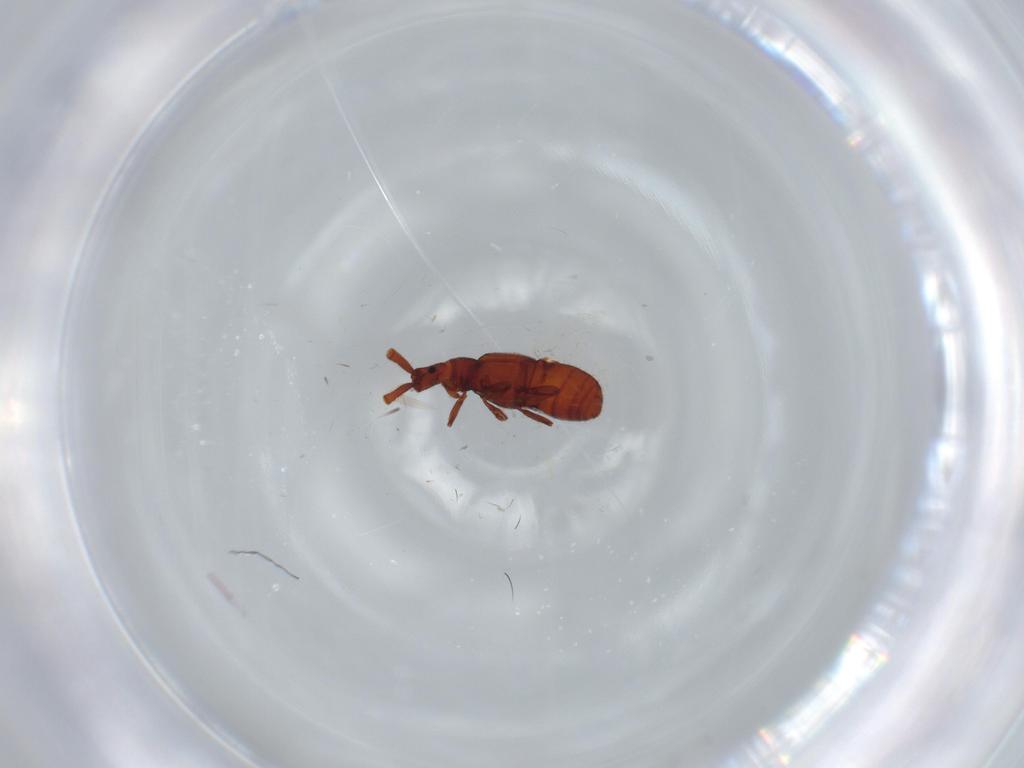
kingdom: Animalia
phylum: Arthropoda
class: Insecta
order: Coleoptera
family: Staphylinidae
